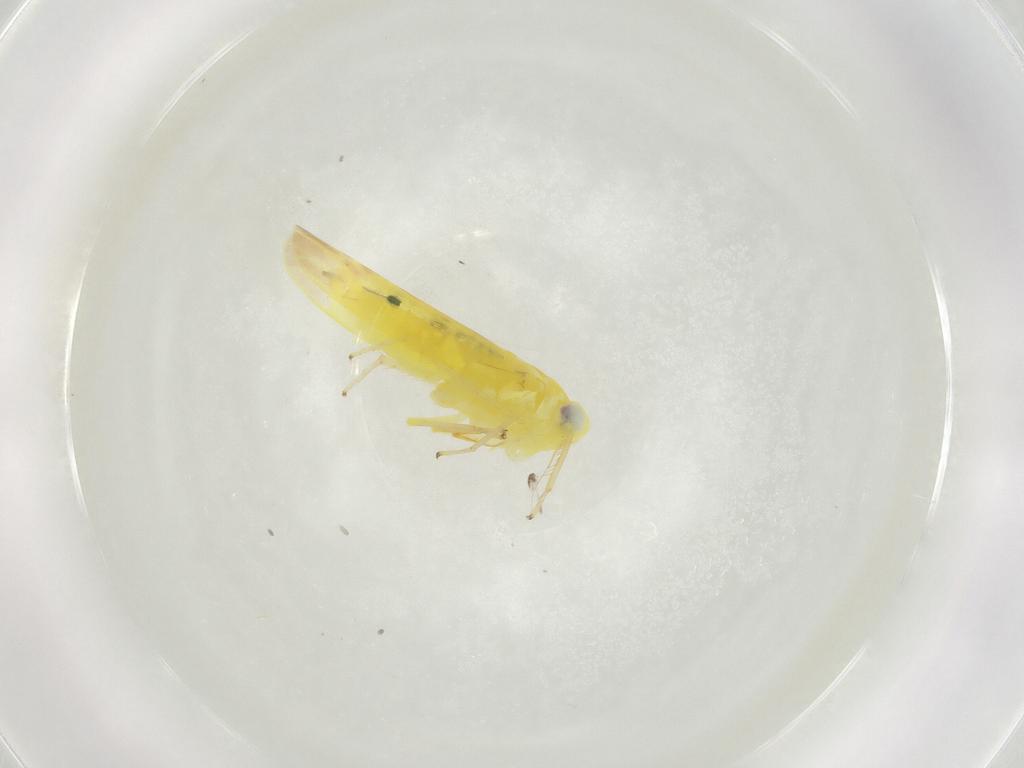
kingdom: Animalia
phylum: Arthropoda
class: Insecta
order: Hemiptera
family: Cicadellidae
